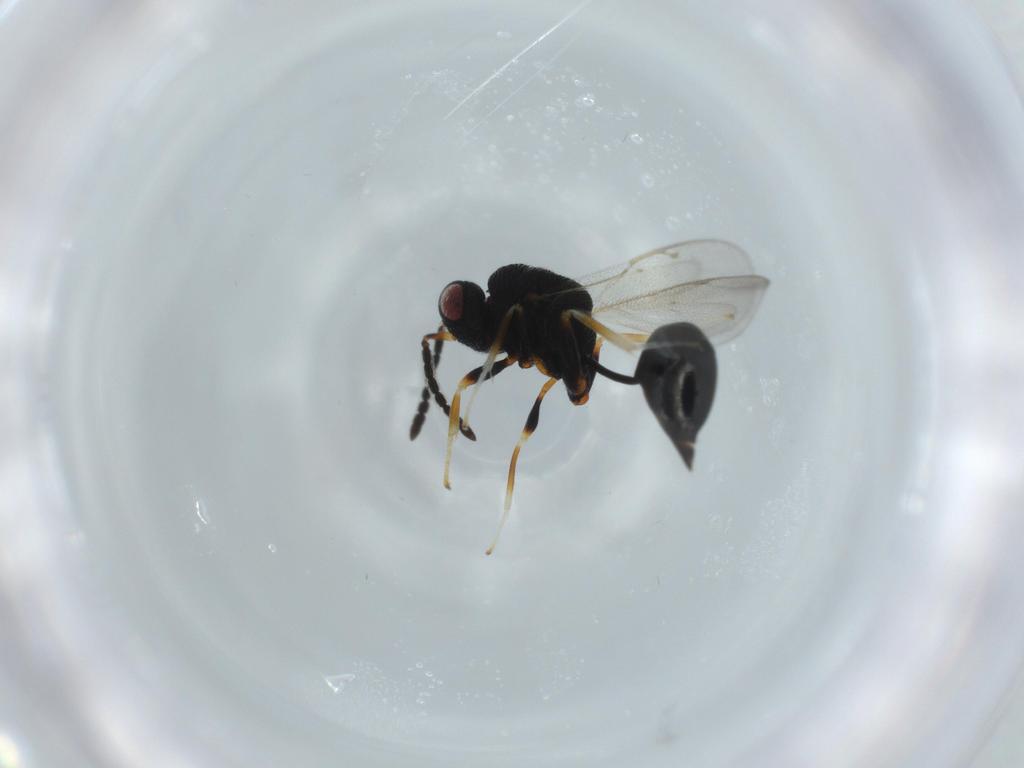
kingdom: Animalia
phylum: Arthropoda
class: Insecta
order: Hymenoptera
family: Eurytomidae
